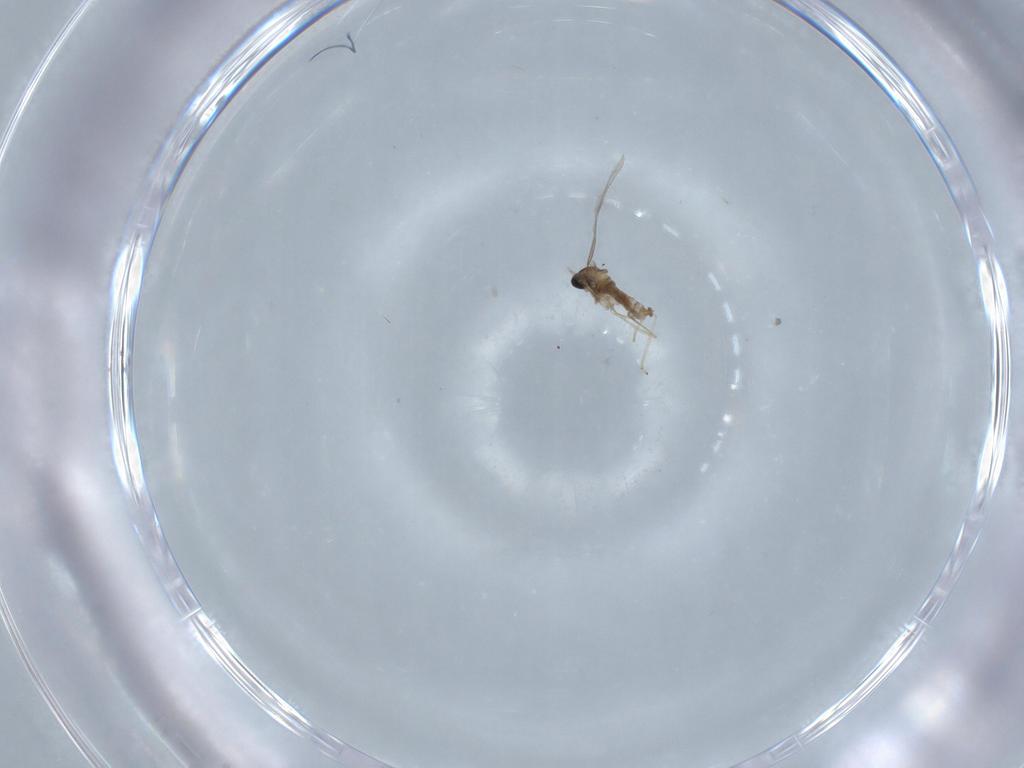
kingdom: Animalia
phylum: Arthropoda
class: Insecta
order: Diptera
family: Cecidomyiidae
